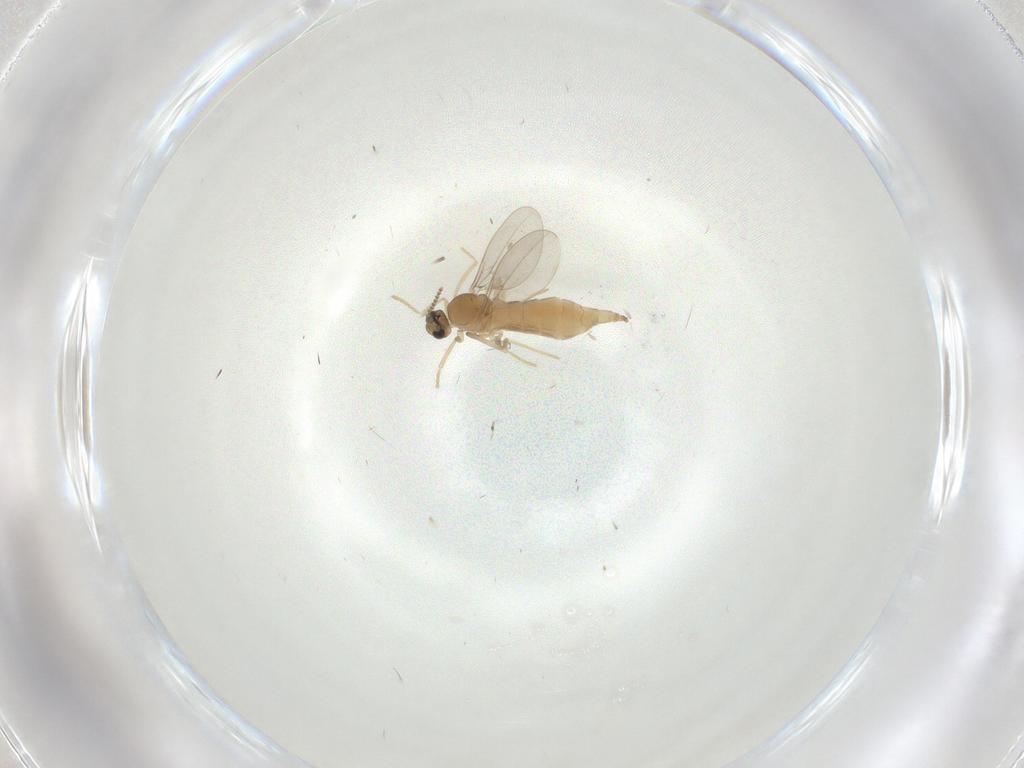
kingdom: Animalia
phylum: Arthropoda
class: Insecta
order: Diptera
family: Cecidomyiidae
